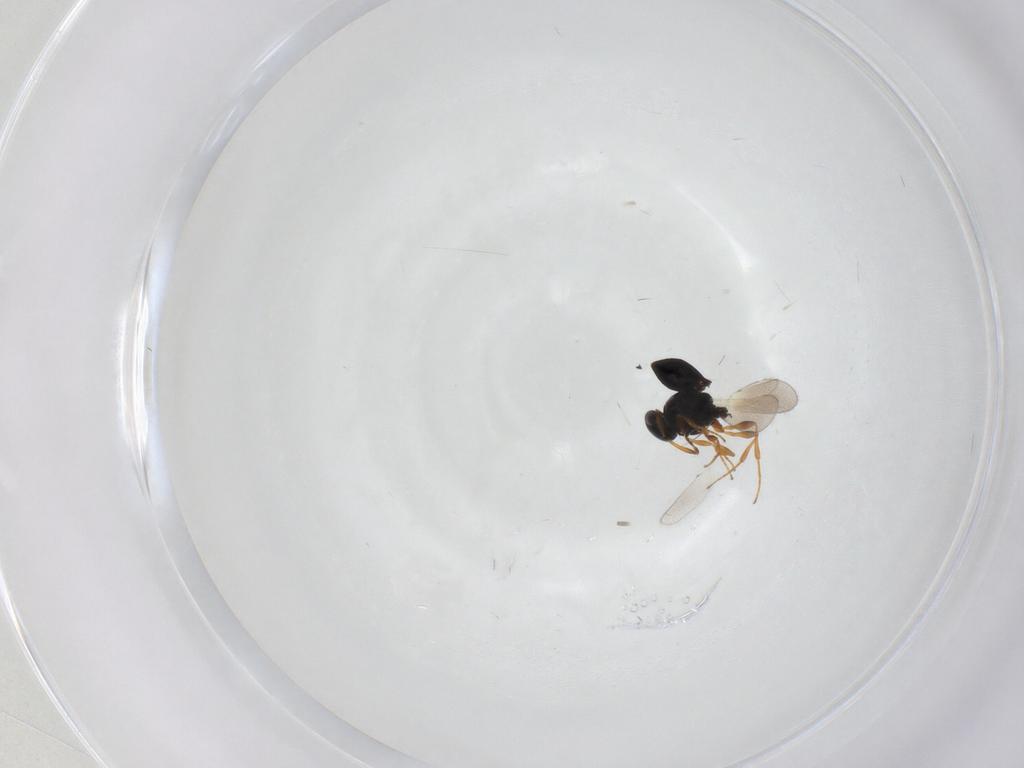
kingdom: Animalia
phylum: Arthropoda
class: Insecta
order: Hymenoptera
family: Platygastridae
